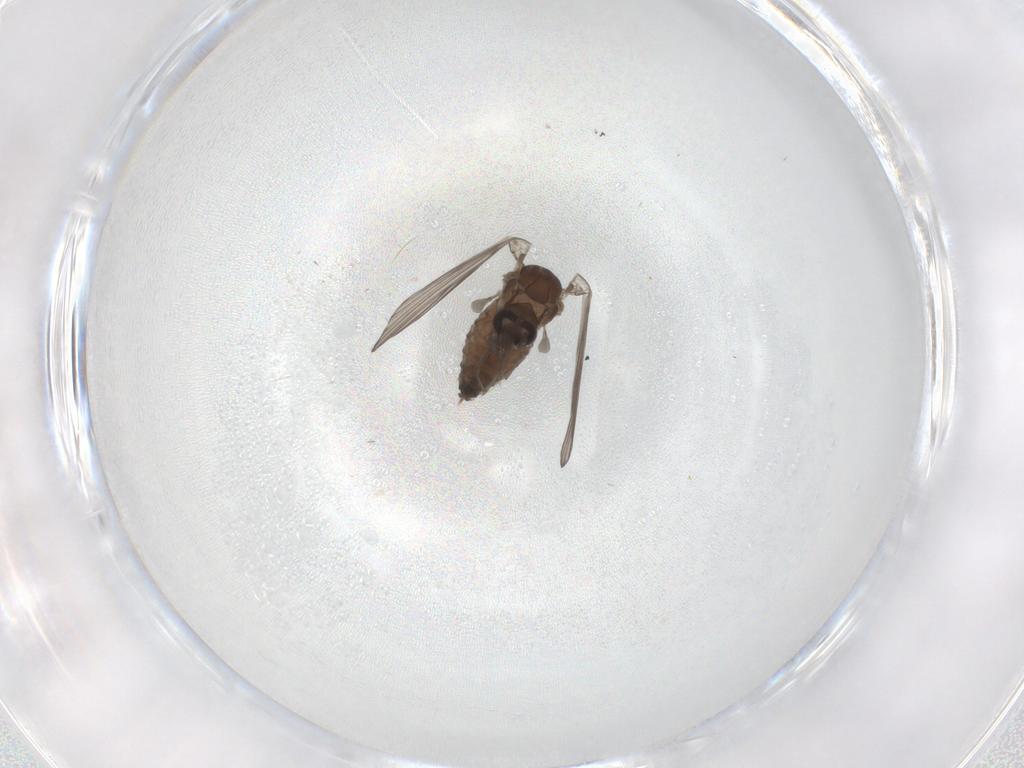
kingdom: Animalia
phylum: Arthropoda
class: Insecta
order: Diptera
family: Psychodidae
